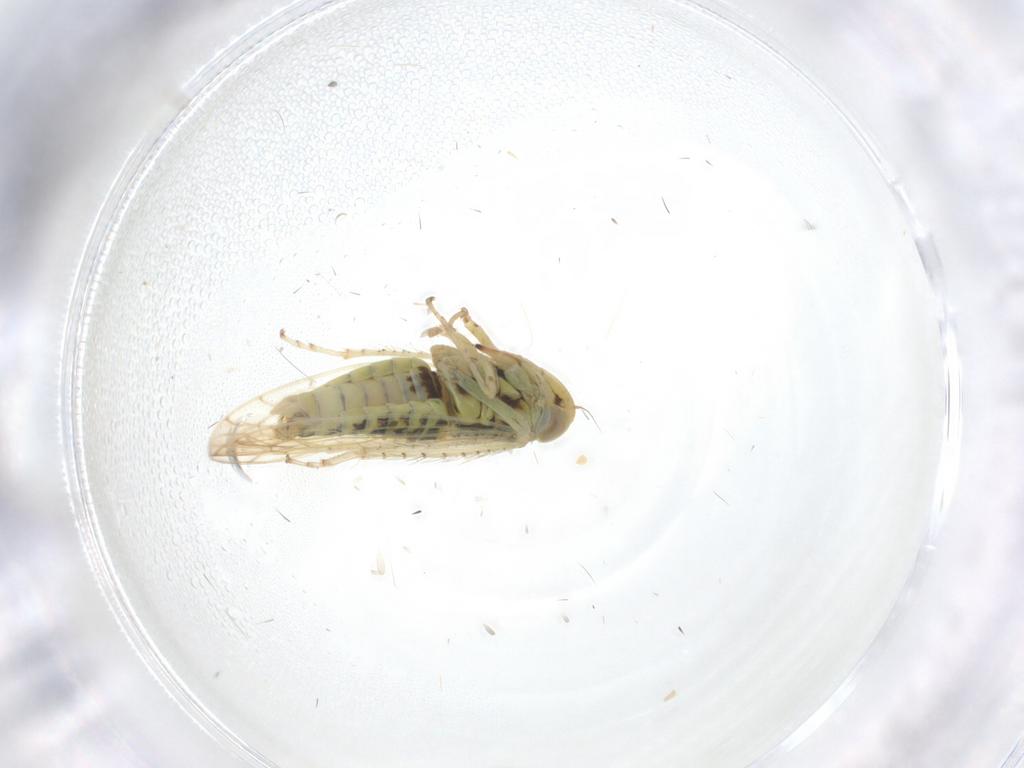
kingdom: Animalia
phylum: Arthropoda
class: Insecta
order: Hemiptera
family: Cicadellidae
